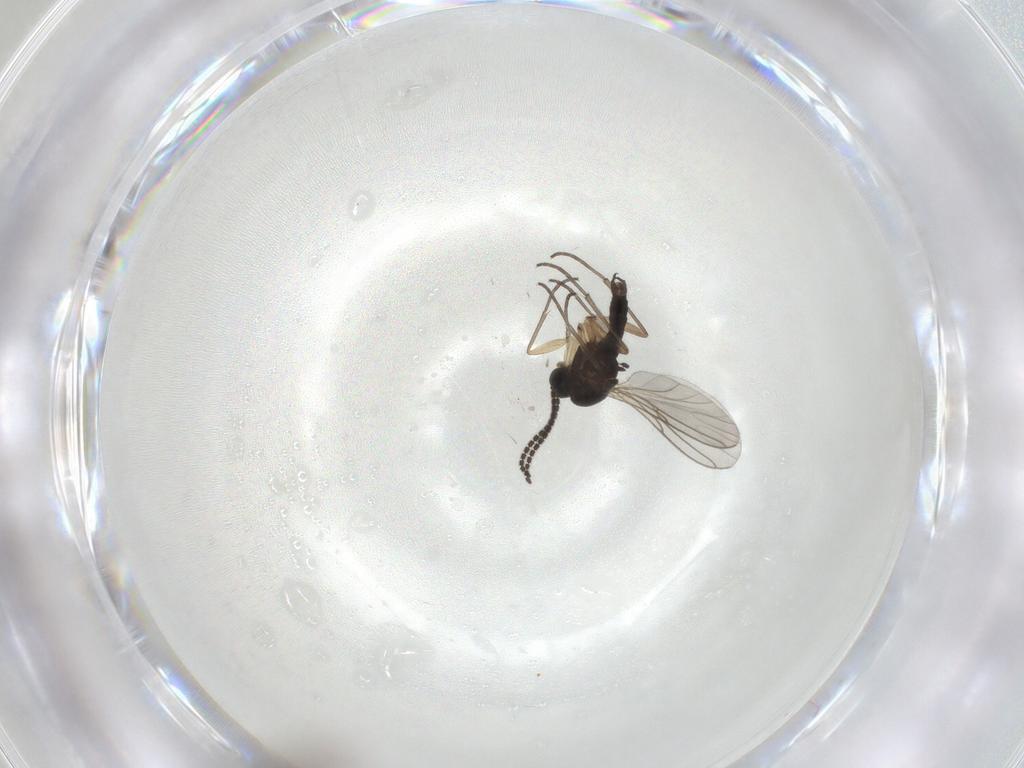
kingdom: Animalia
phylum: Arthropoda
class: Insecta
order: Diptera
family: Sciaridae
